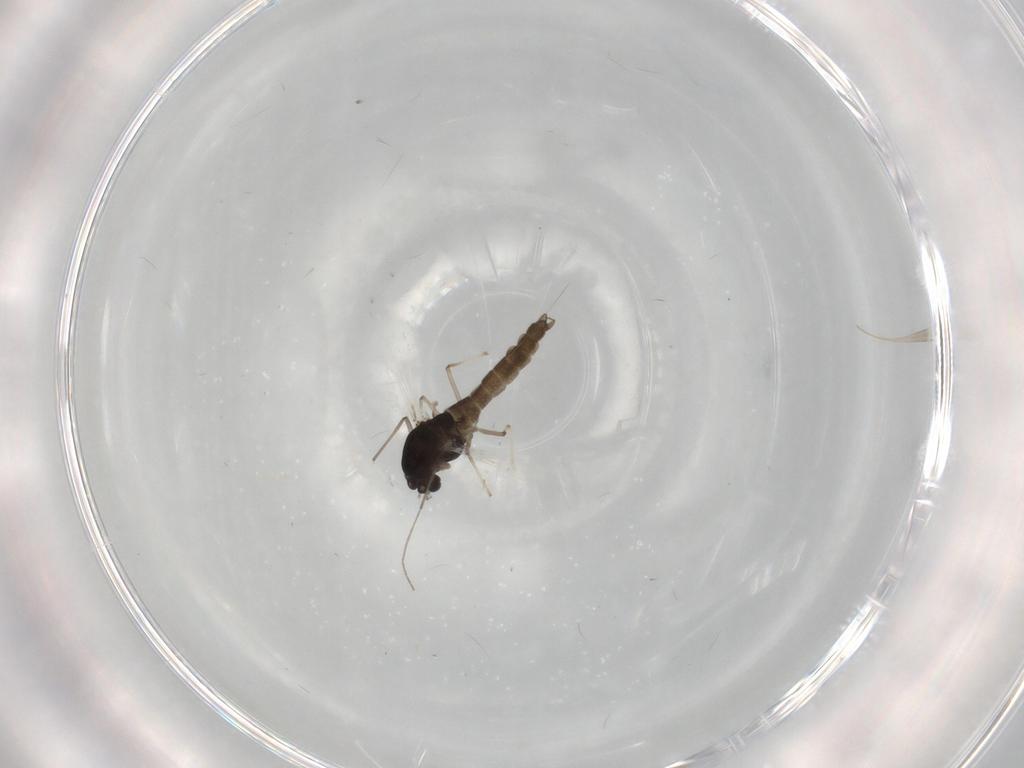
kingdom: Animalia
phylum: Arthropoda
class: Insecta
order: Diptera
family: Chironomidae
